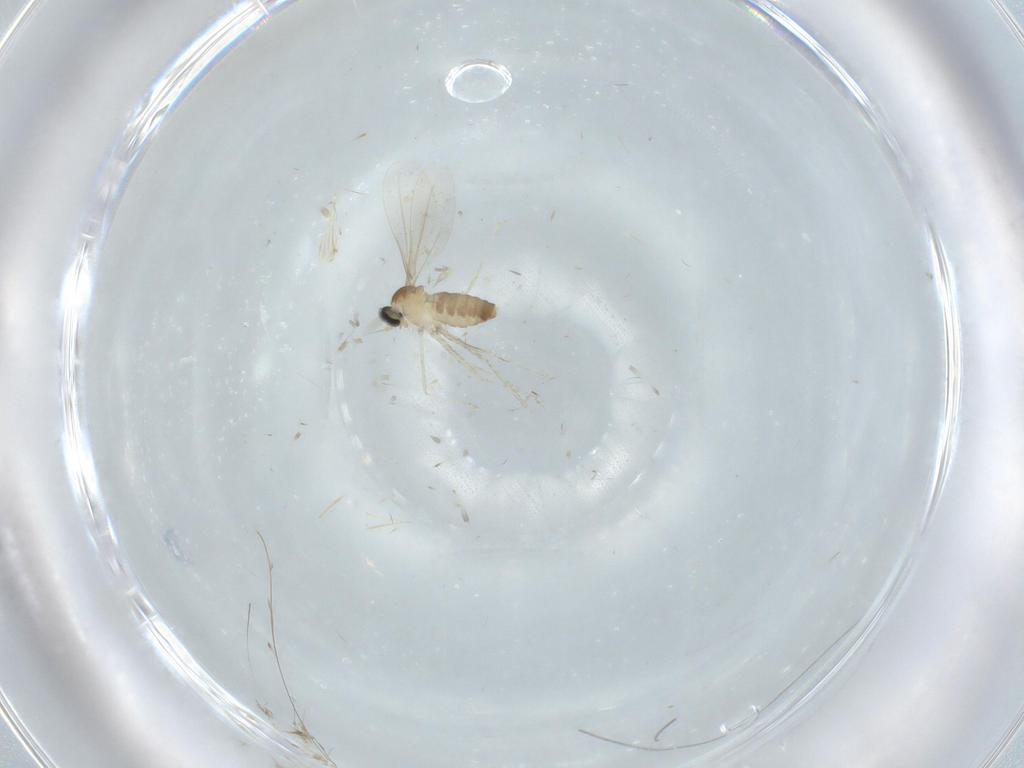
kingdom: Animalia
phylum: Arthropoda
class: Insecta
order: Diptera
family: Cecidomyiidae
